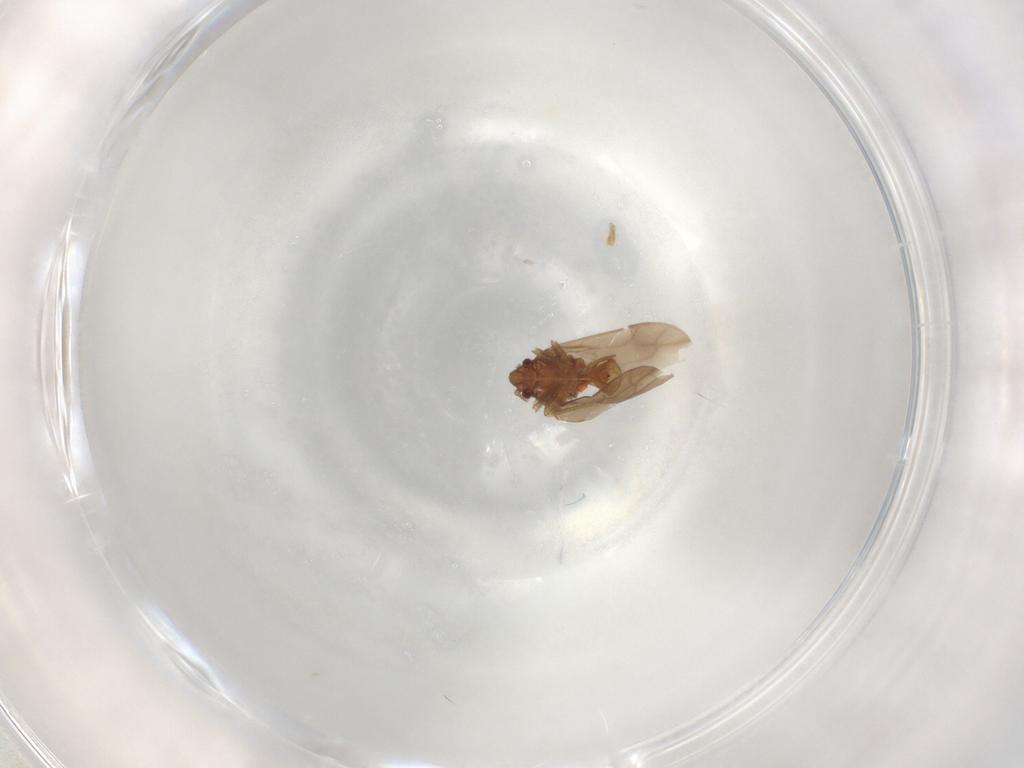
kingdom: Animalia
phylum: Arthropoda
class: Insecta
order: Hemiptera
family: Ceratocombidae
